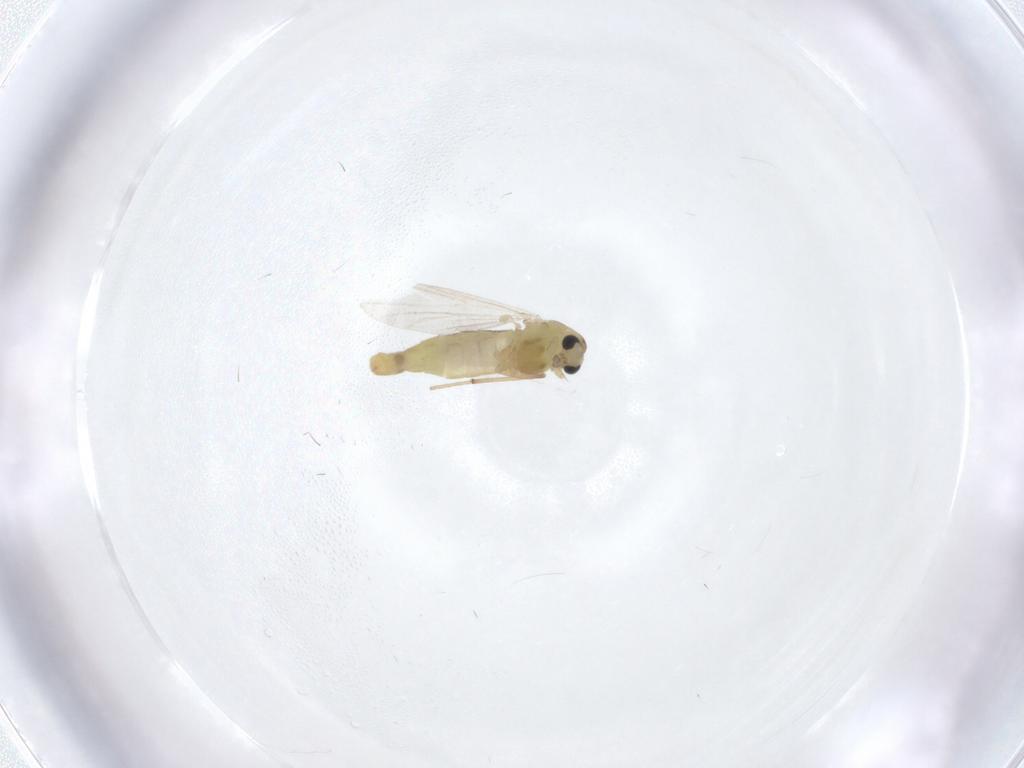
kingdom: Animalia
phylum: Arthropoda
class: Insecta
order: Diptera
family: Chironomidae
